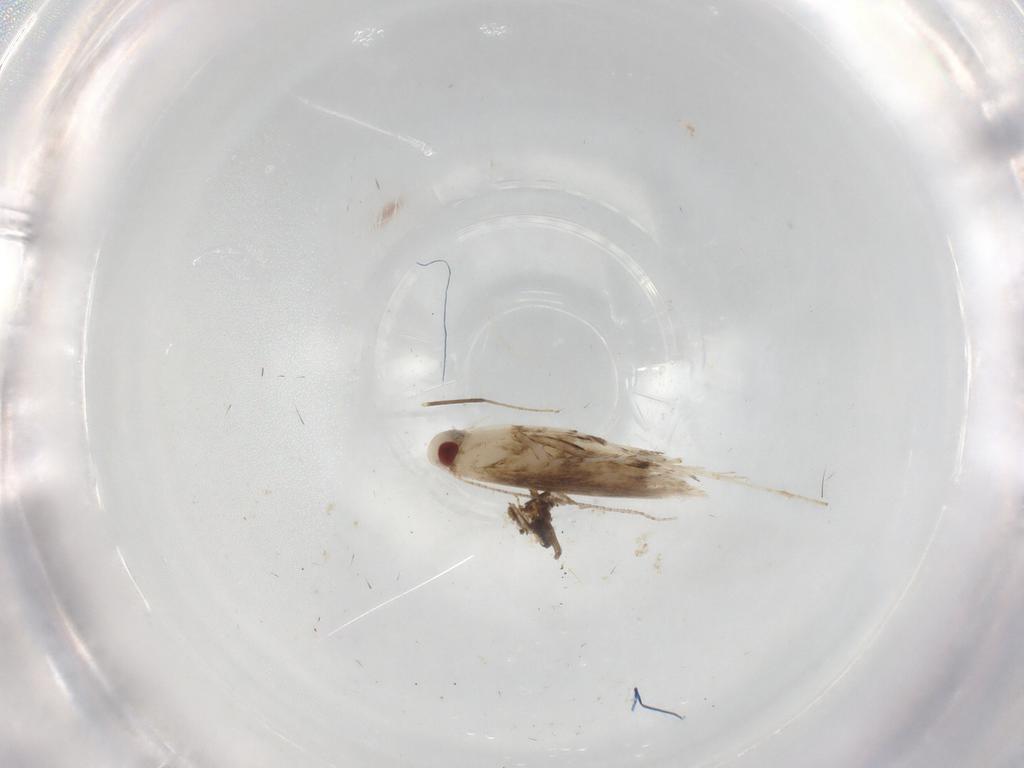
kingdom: Animalia
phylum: Arthropoda
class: Insecta
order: Lepidoptera
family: Gracillariidae
